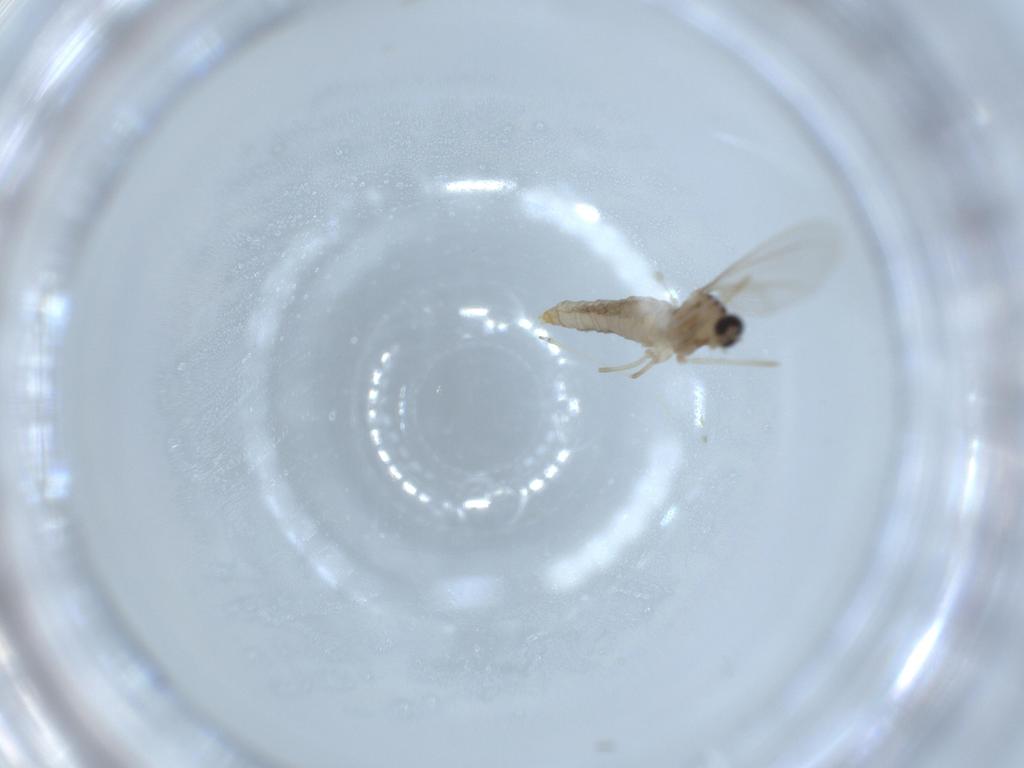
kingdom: Animalia
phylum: Arthropoda
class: Insecta
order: Diptera
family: Cecidomyiidae
